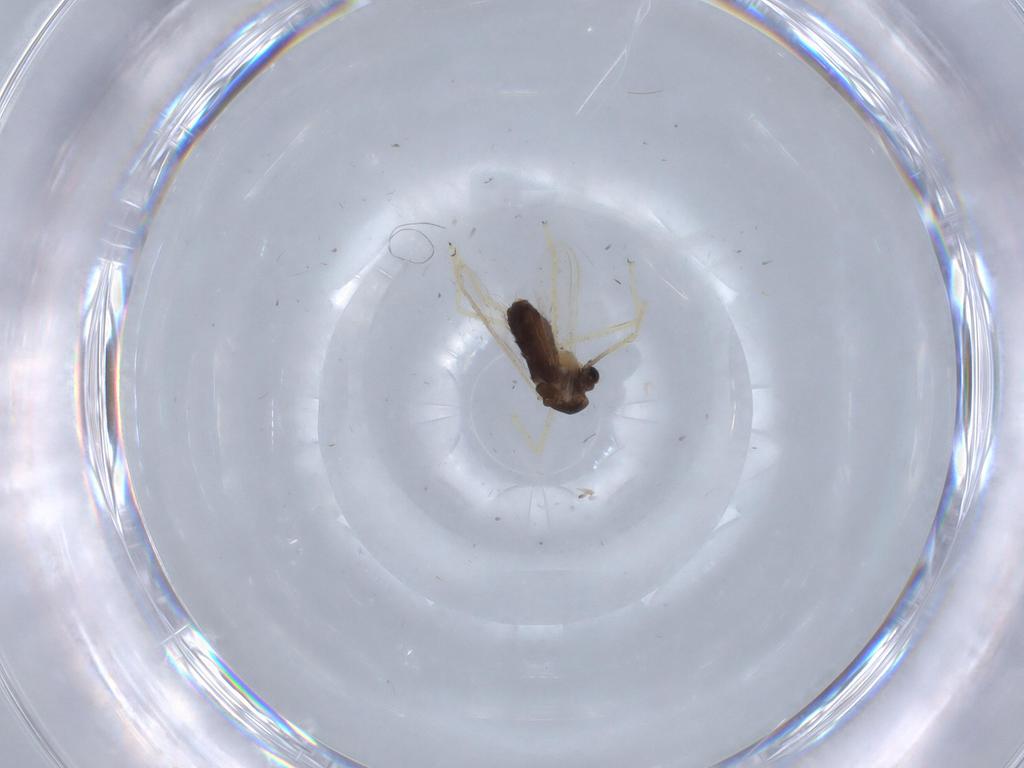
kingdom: Animalia
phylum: Arthropoda
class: Insecta
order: Diptera
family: Chironomidae
